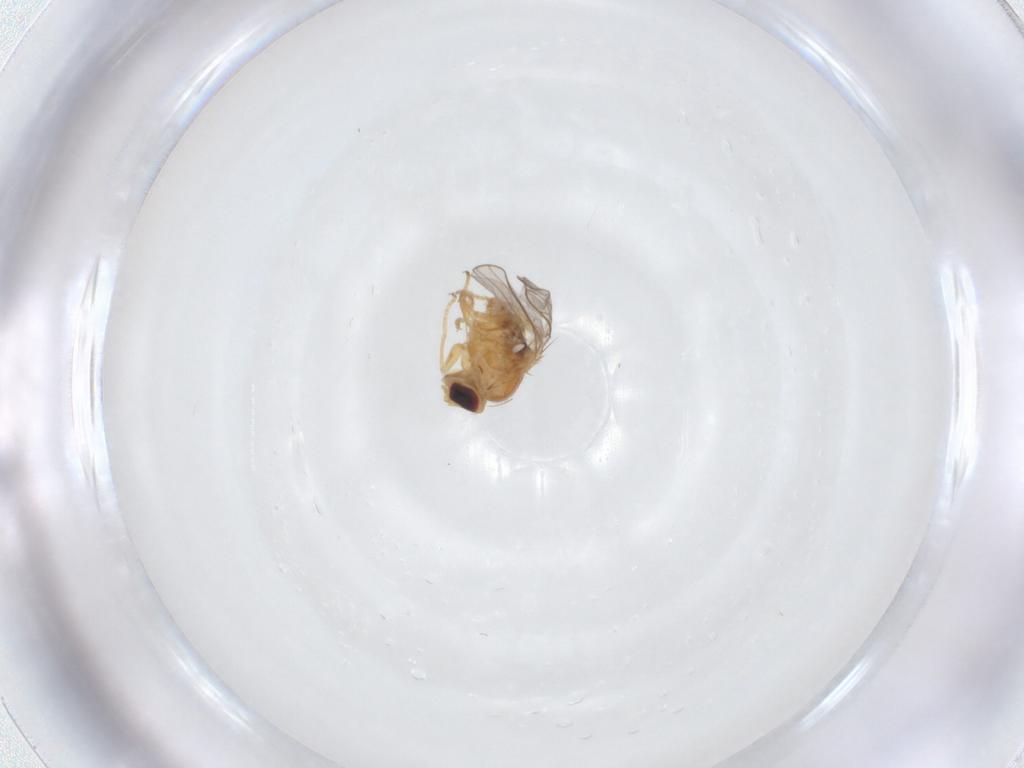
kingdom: Animalia
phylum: Arthropoda
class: Insecta
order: Diptera
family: Chloropidae
